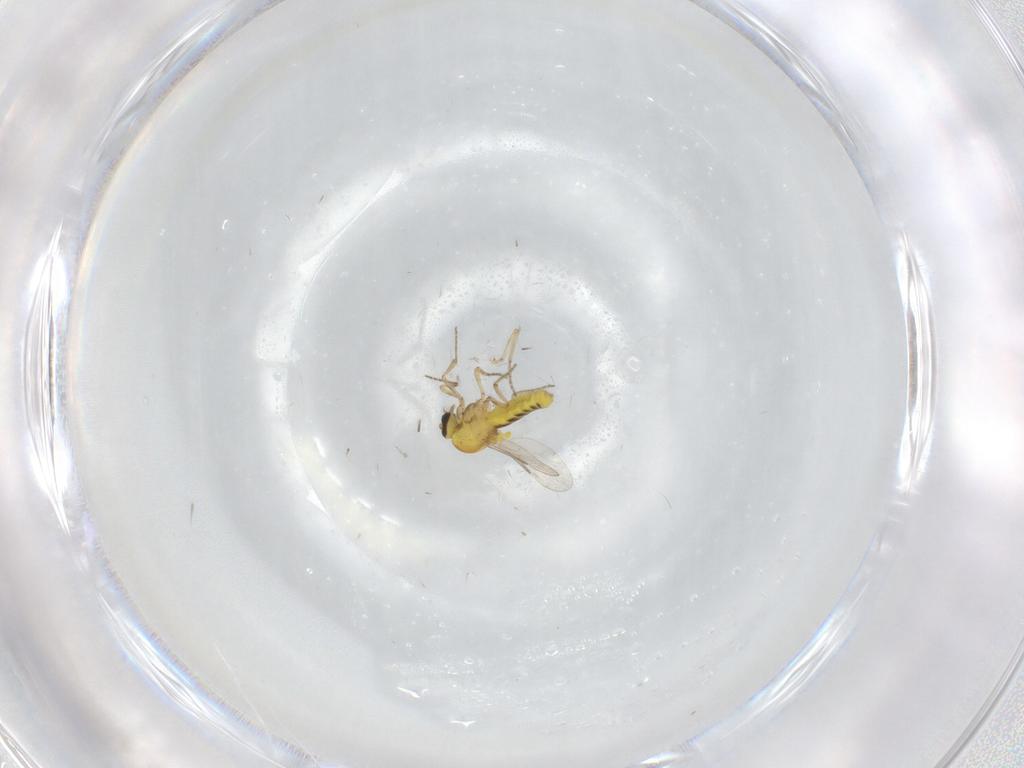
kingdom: Animalia
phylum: Arthropoda
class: Insecta
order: Diptera
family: Ceratopogonidae
